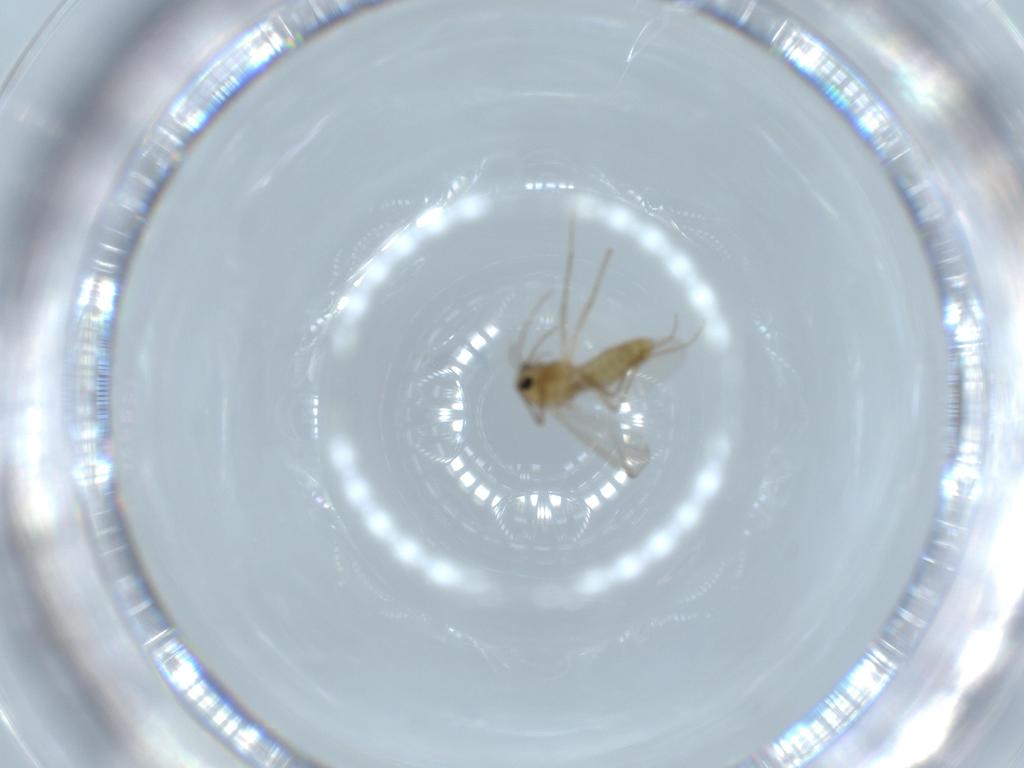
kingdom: Animalia
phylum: Arthropoda
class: Insecta
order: Diptera
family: Chironomidae
